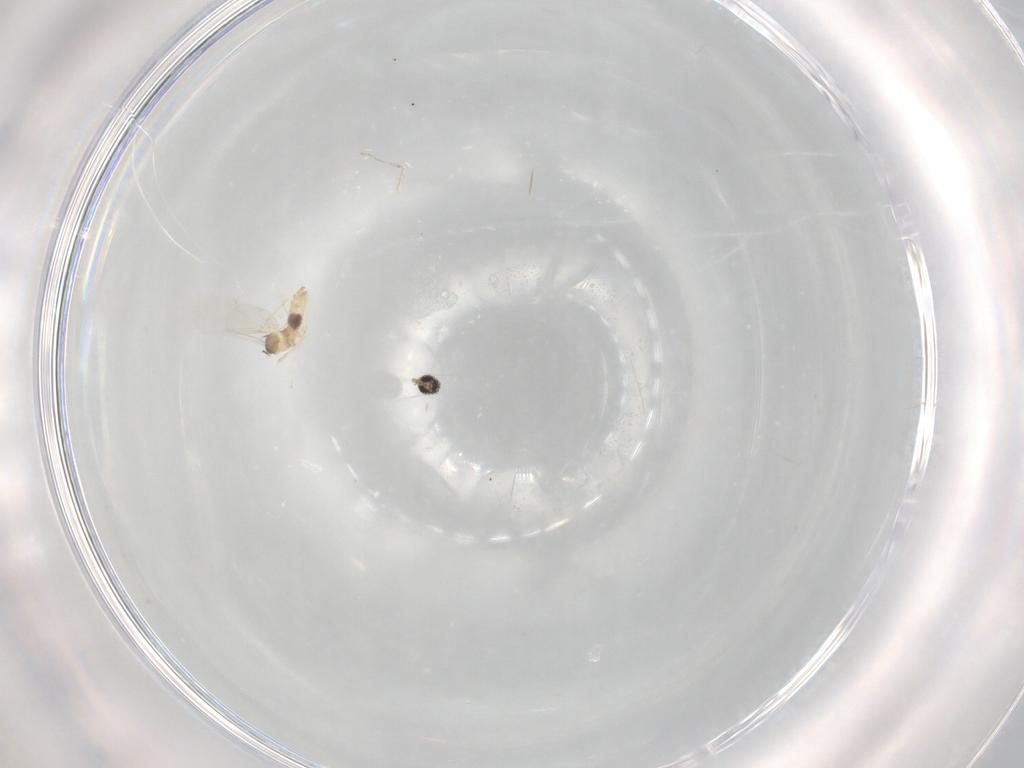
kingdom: Animalia
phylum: Arthropoda
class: Insecta
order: Diptera
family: Cecidomyiidae
